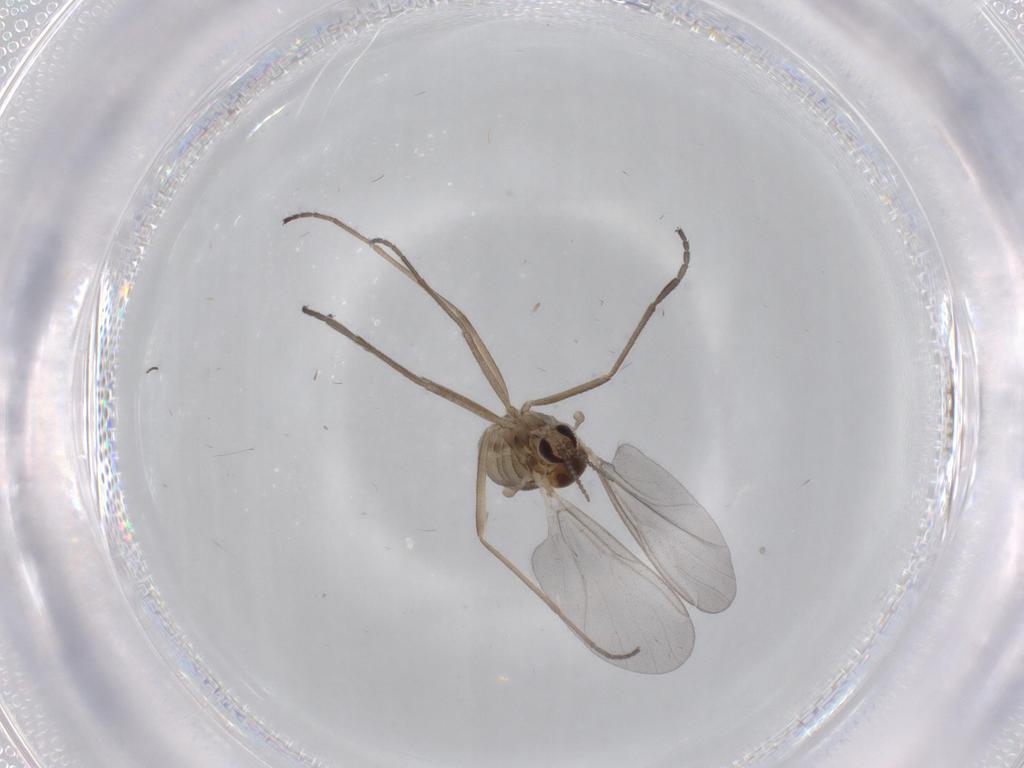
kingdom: Animalia
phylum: Arthropoda
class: Insecta
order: Diptera
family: Cecidomyiidae
